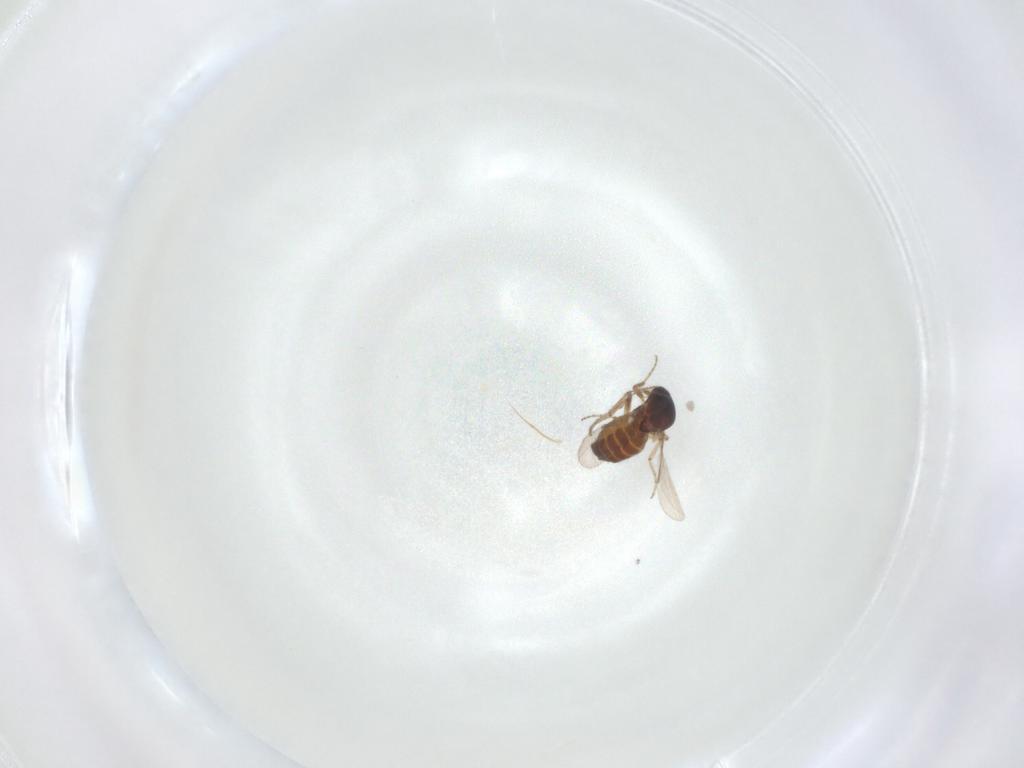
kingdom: Animalia
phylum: Arthropoda
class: Insecta
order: Diptera
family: Ceratopogonidae
